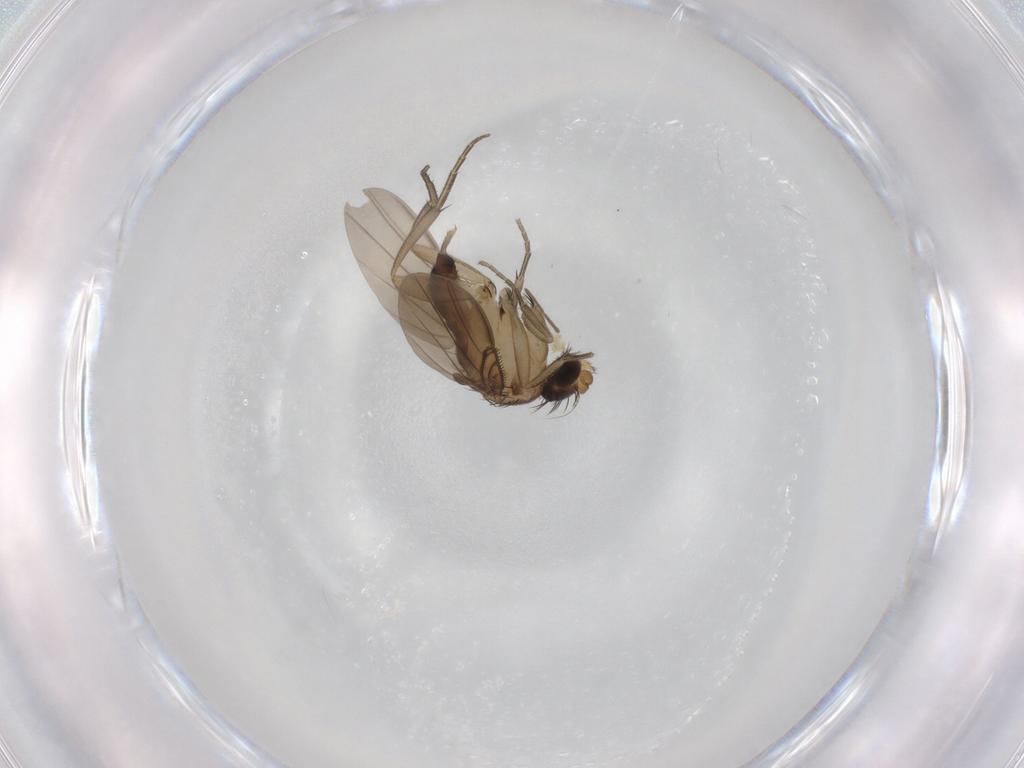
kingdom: Animalia
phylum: Arthropoda
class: Insecta
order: Diptera
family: Phoridae
